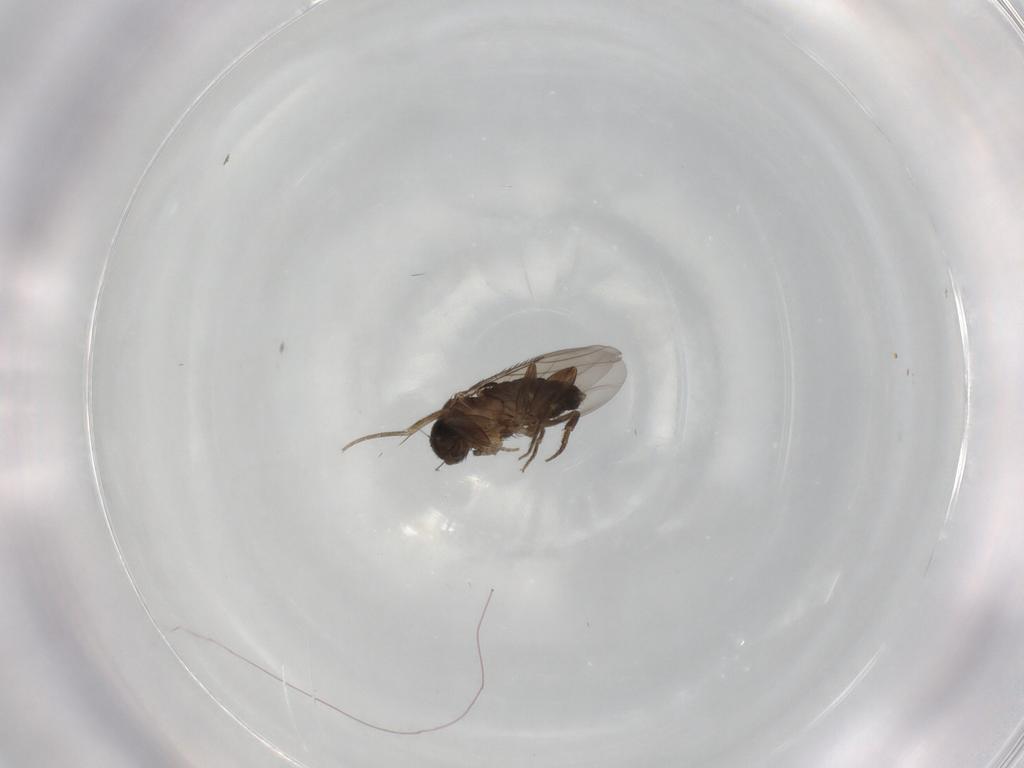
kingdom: Animalia
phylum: Arthropoda
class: Insecta
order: Diptera
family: Phoridae
